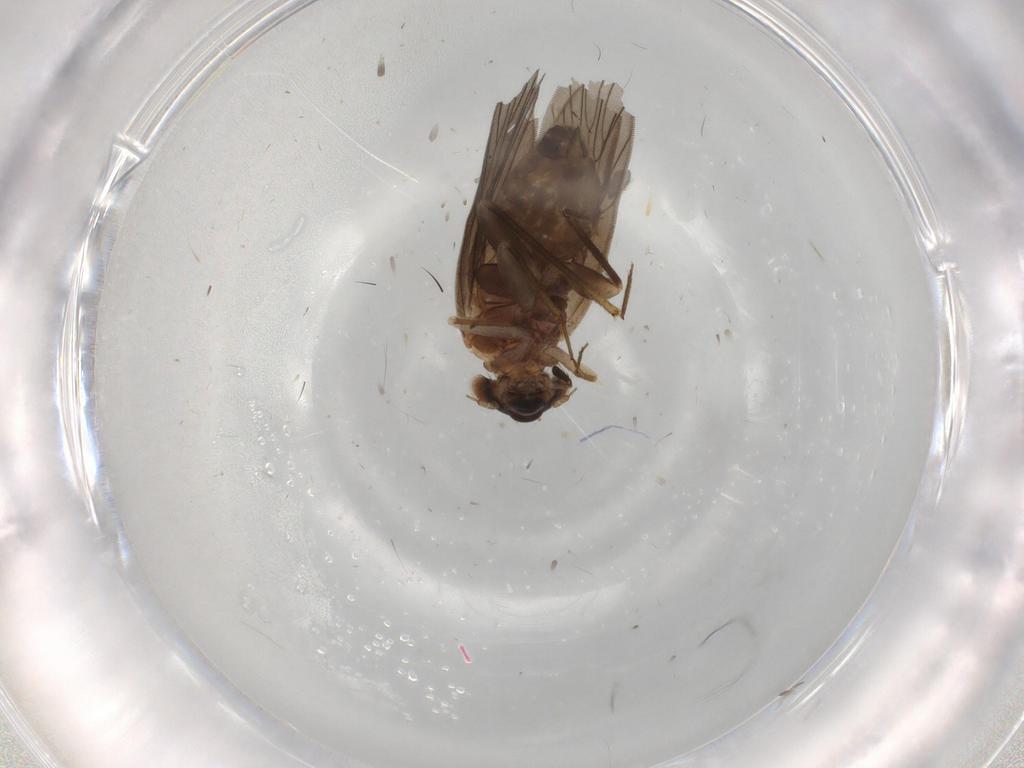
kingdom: Animalia
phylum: Arthropoda
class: Insecta
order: Psocodea
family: Lepidopsocidae
